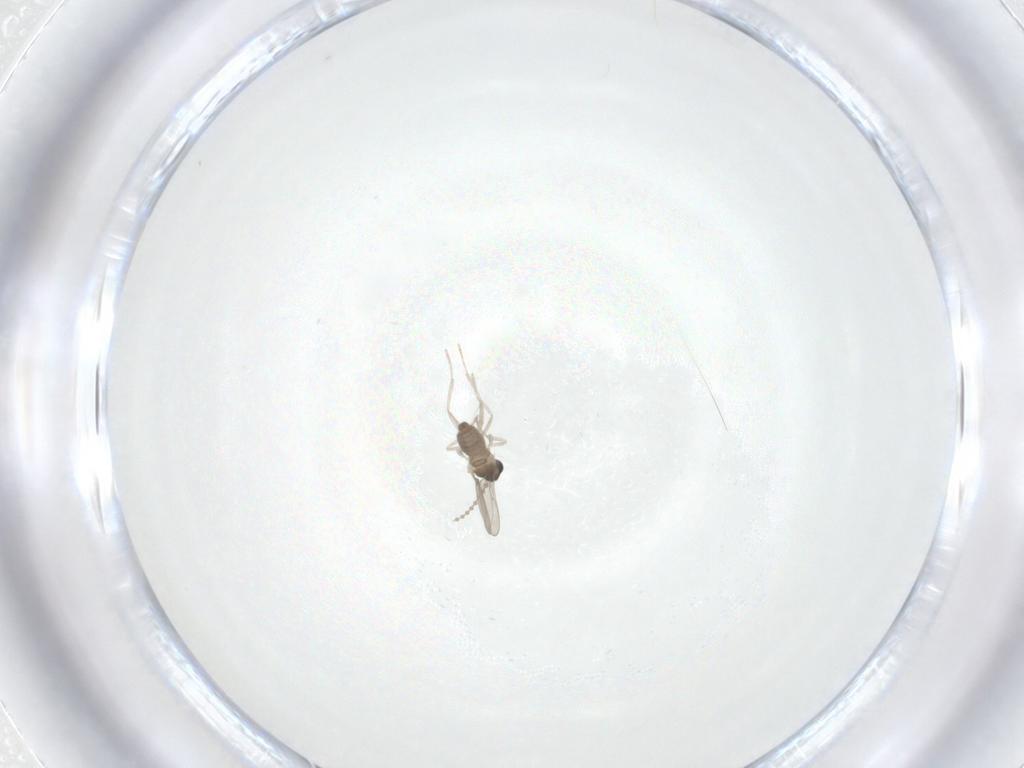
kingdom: Animalia
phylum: Arthropoda
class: Insecta
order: Diptera
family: Cecidomyiidae
